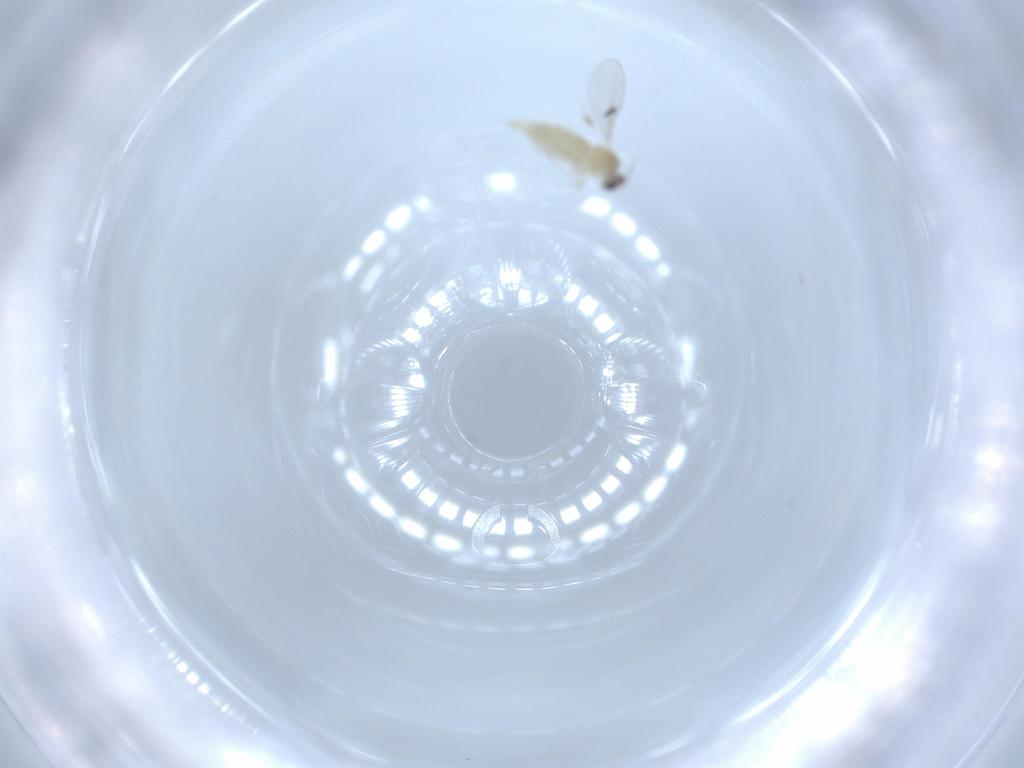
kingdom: Animalia
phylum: Arthropoda
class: Insecta
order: Diptera
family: Cecidomyiidae
